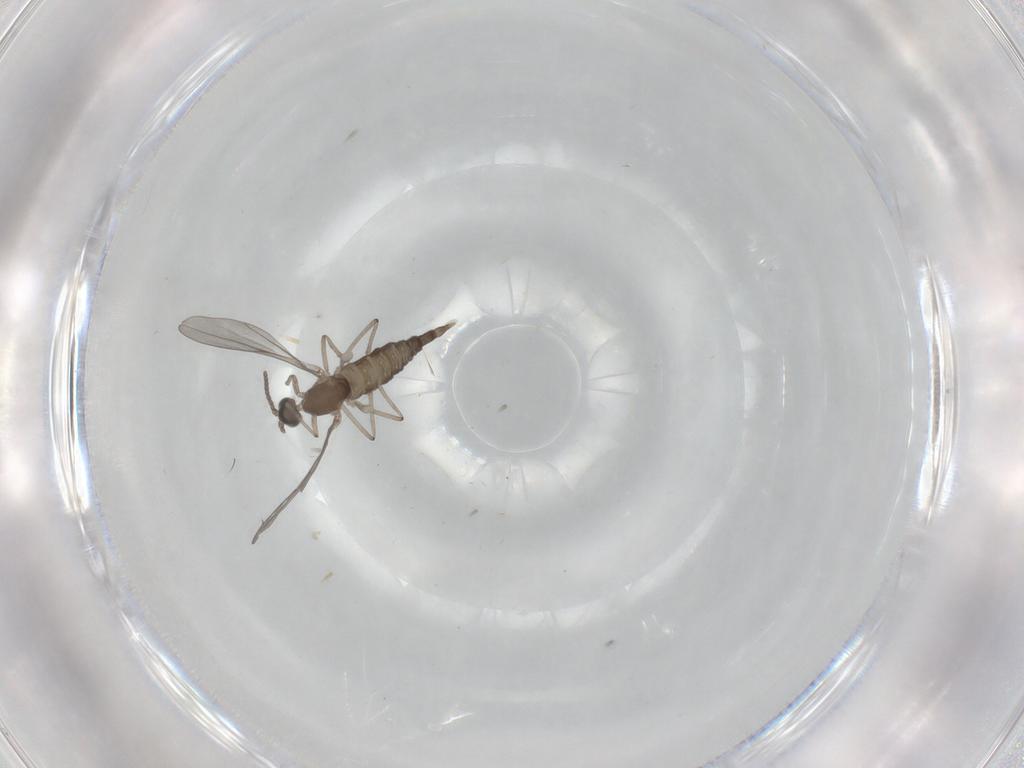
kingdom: Animalia
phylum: Arthropoda
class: Insecta
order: Diptera
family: Cecidomyiidae
